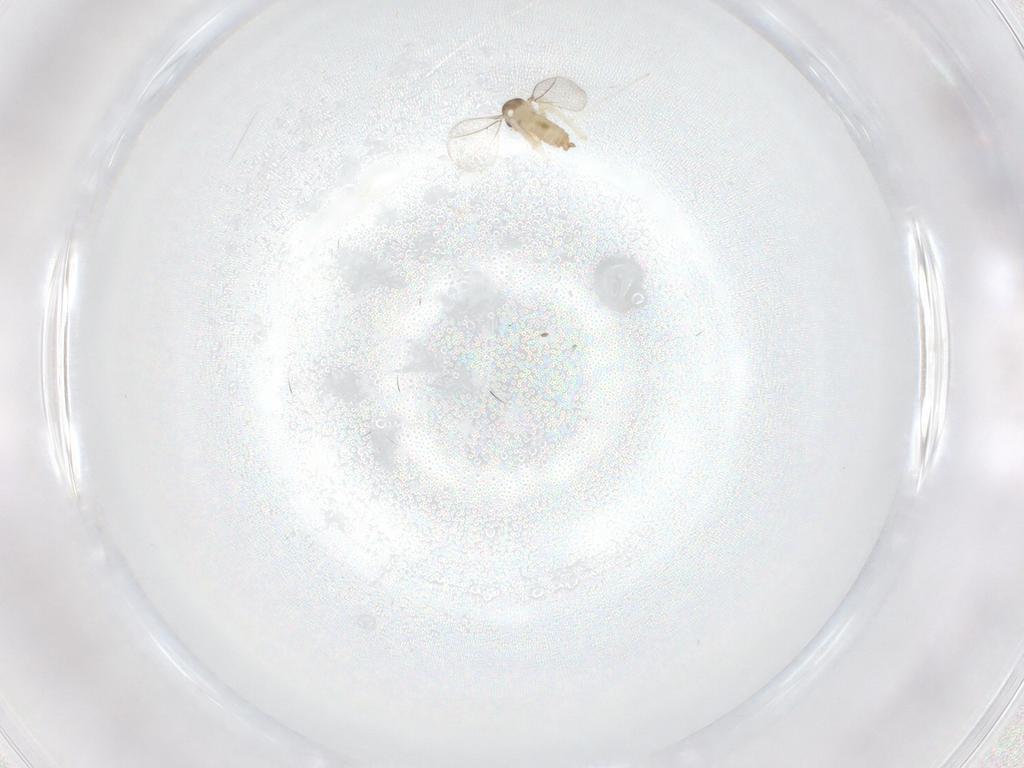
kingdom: Animalia
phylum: Arthropoda
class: Insecta
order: Diptera
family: Cecidomyiidae
